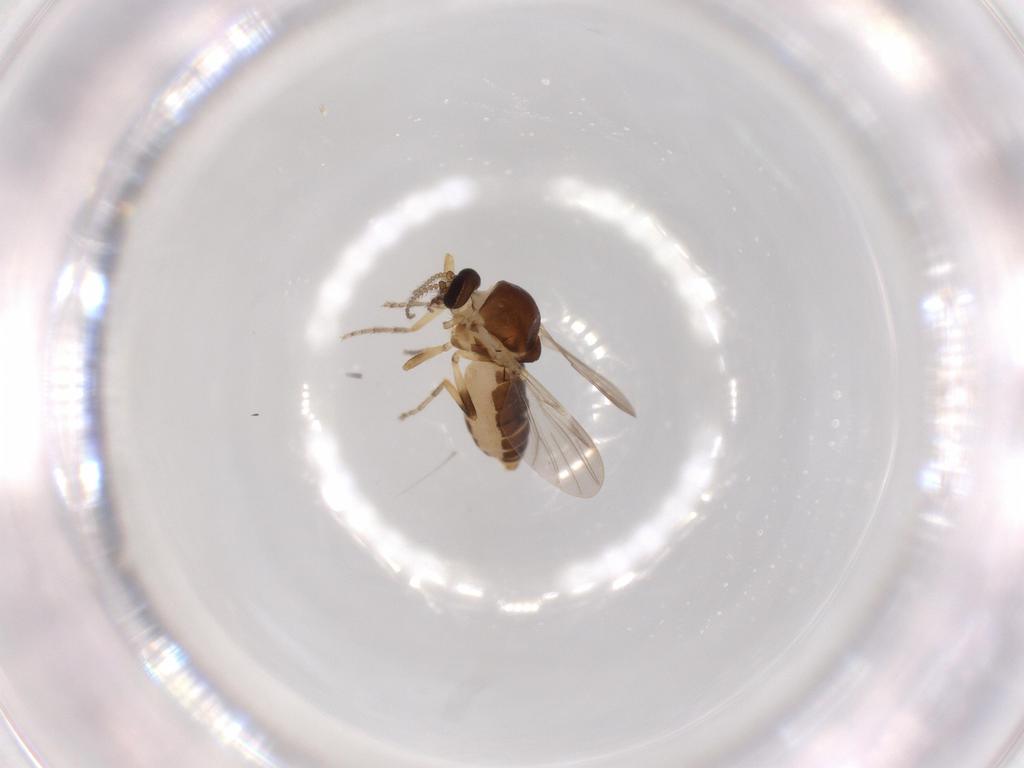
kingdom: Animalia
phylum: Arthropoda
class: Insecta
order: Diptera
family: Ceratopogonidae
